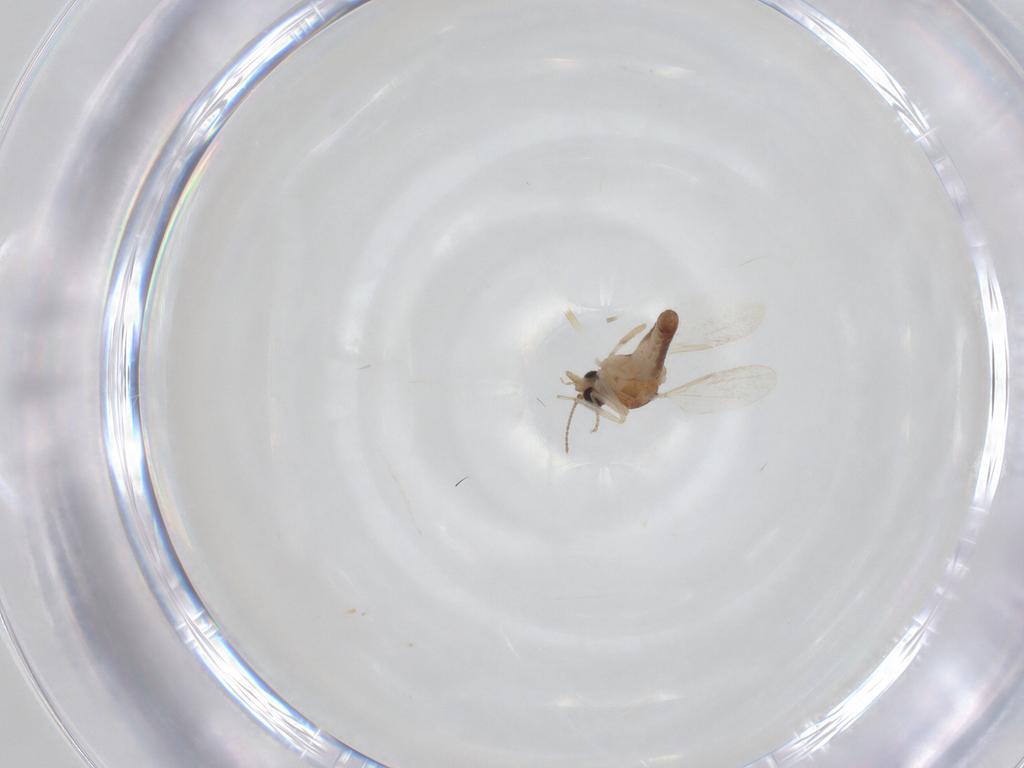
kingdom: Animalia
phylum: Arthropoda
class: Insecta
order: Diptera
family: Ceratopogonidae
